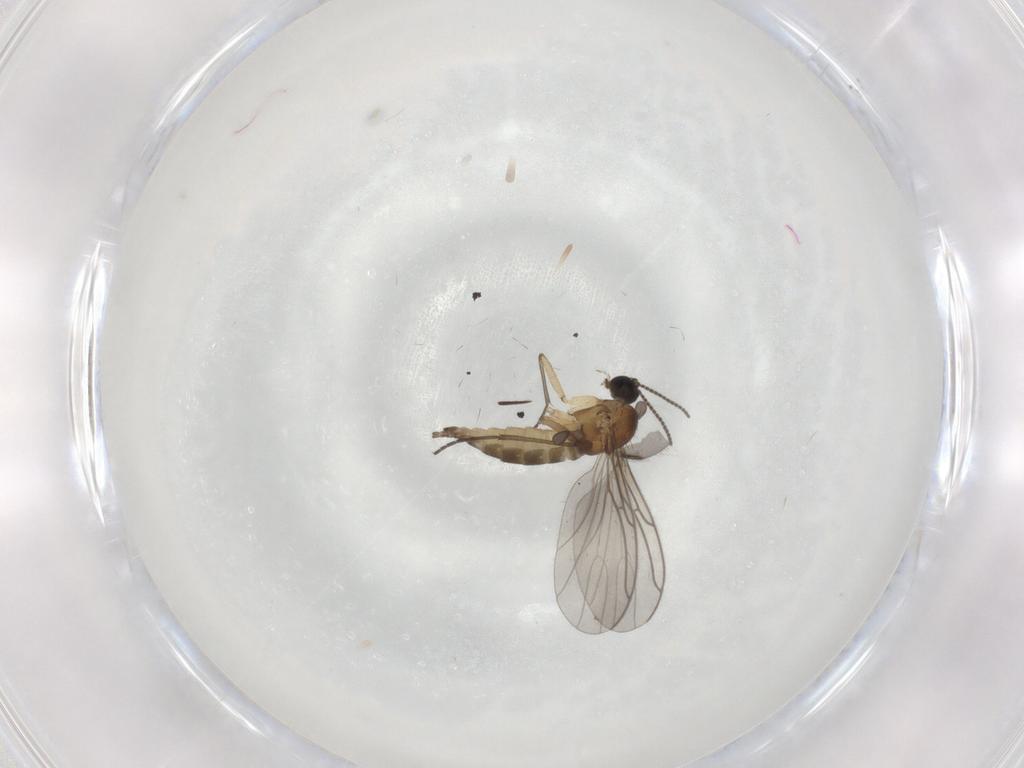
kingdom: Animalia
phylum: Arthropoda
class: Insecta
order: Diptera
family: Sciaridae
